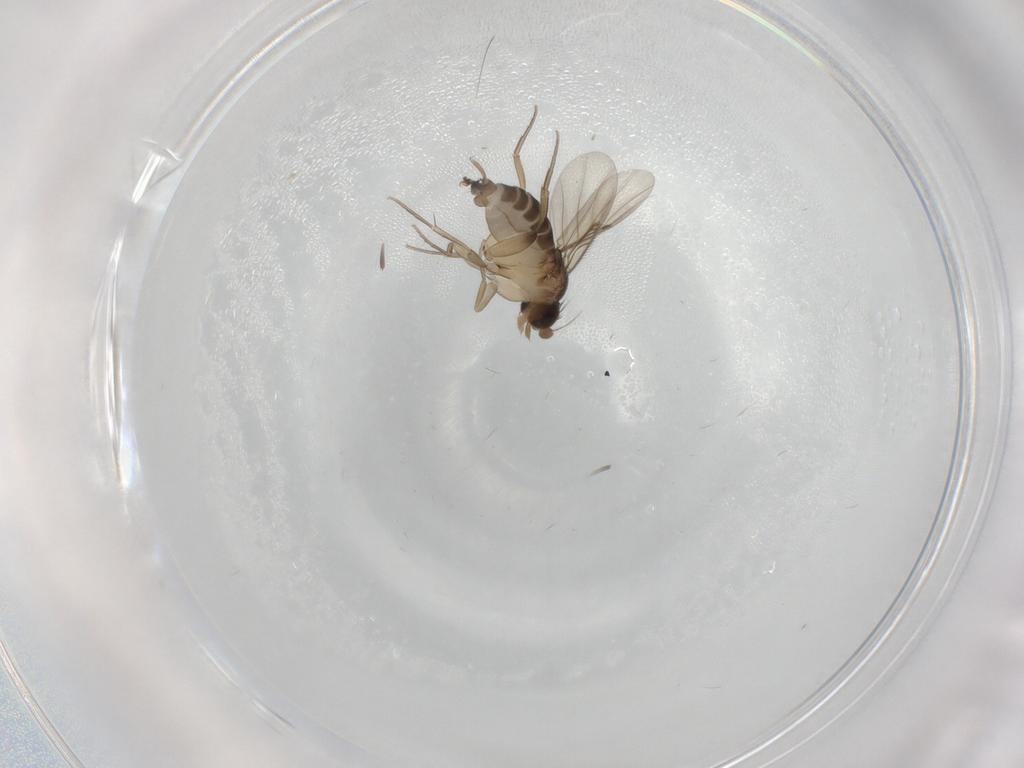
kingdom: Animalia
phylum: Arthropoda
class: Insecta
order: Diptera
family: Phoridae
